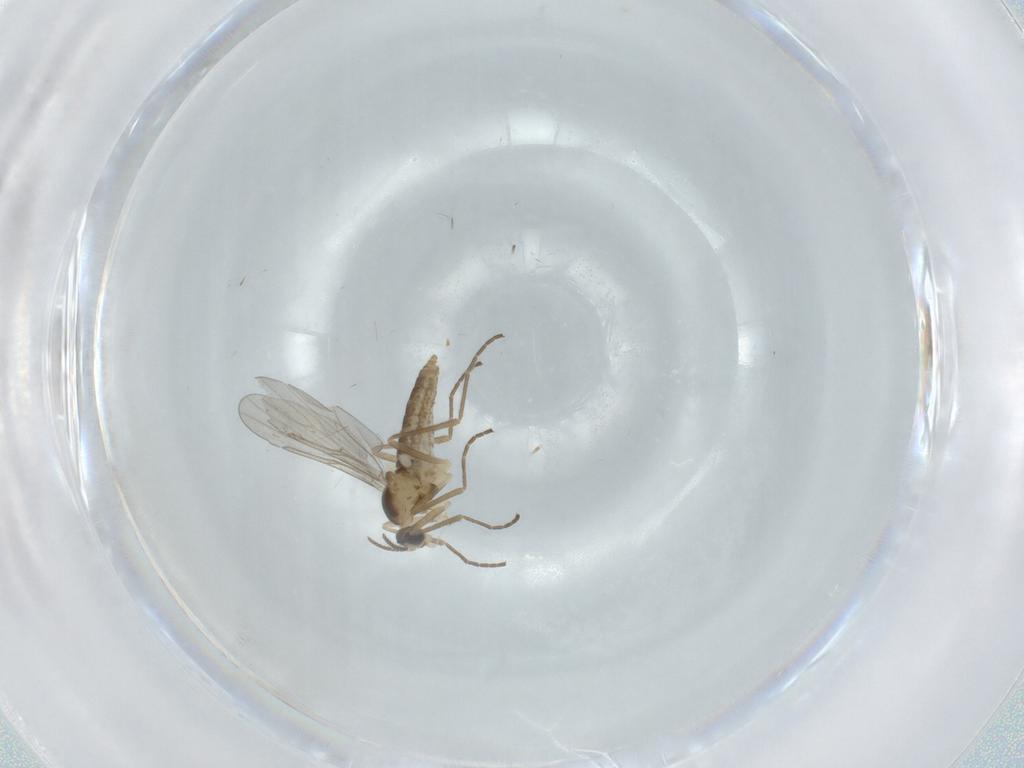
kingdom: Animalia
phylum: Arthropoda
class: Insecta
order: Diptera
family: Cecidomyiidae
